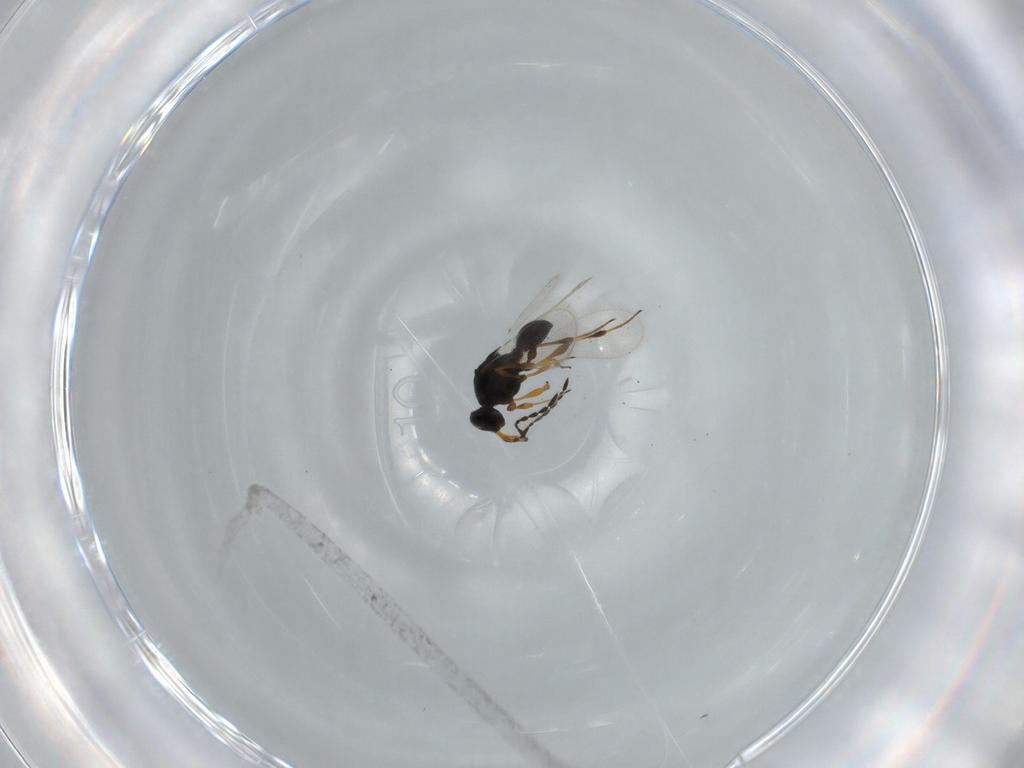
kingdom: Animalia
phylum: Arthropoda
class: Insecta
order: Hymenoptera
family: Platygastridae
